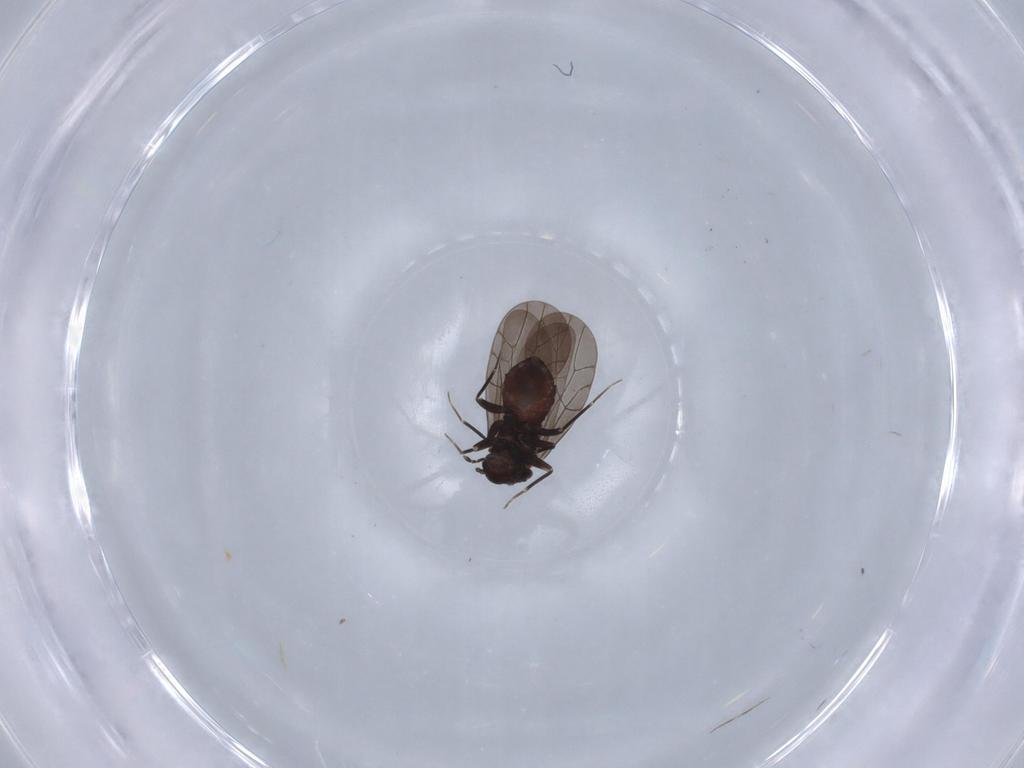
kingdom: Animalia
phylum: Arthropoda
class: Insecta
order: Psocodea
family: Lepidopsocidae
